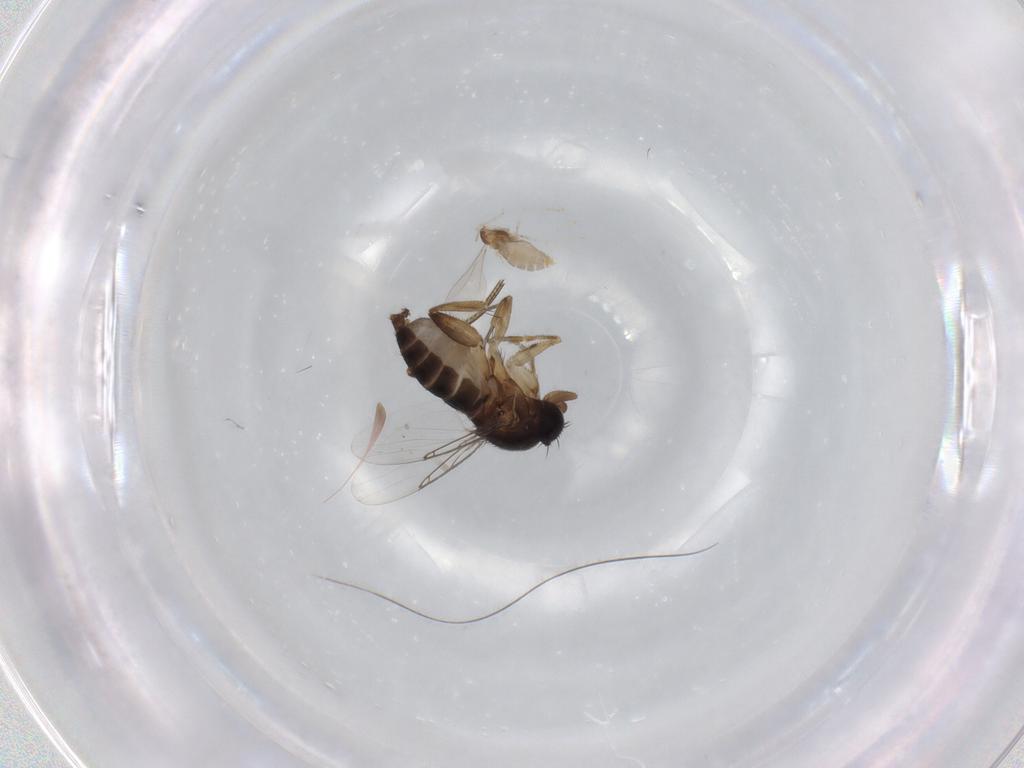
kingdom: Animalia
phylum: Arthropoda
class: Insecta
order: Diptera
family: Phoridae
